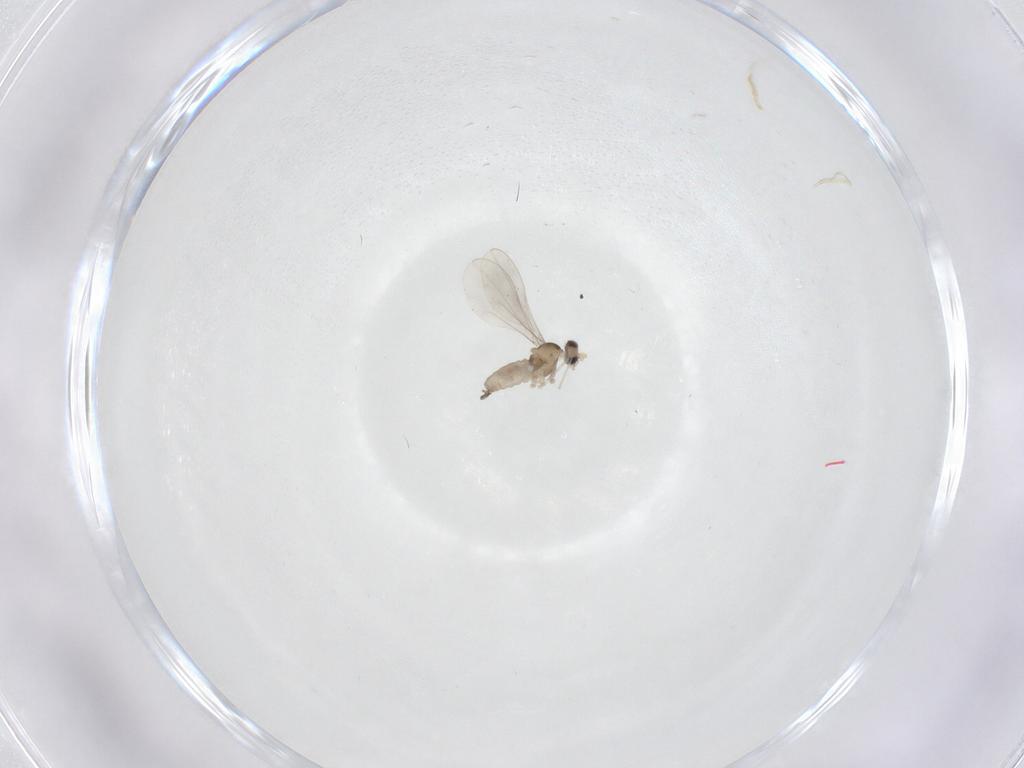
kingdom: Animalia
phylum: Arthropoda
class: Insecta
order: Diptera
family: Cecidomyiidae
